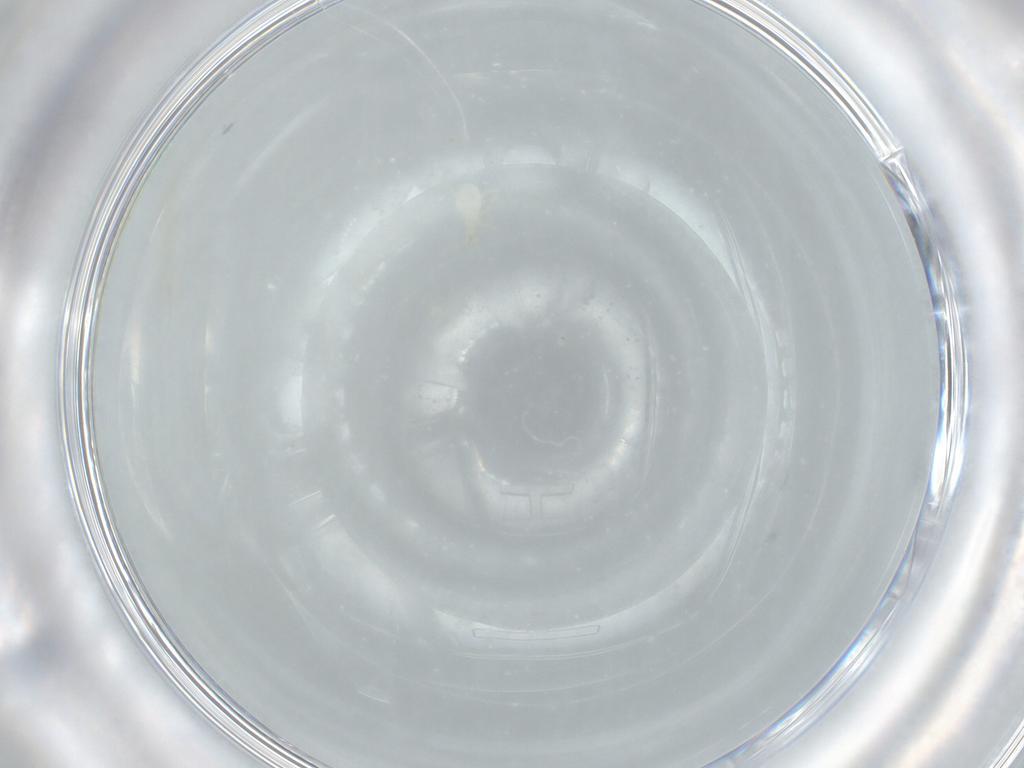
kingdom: Animalia
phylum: Arthropoda
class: Arachnida
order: Trombidiformes
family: Erythraeidae
